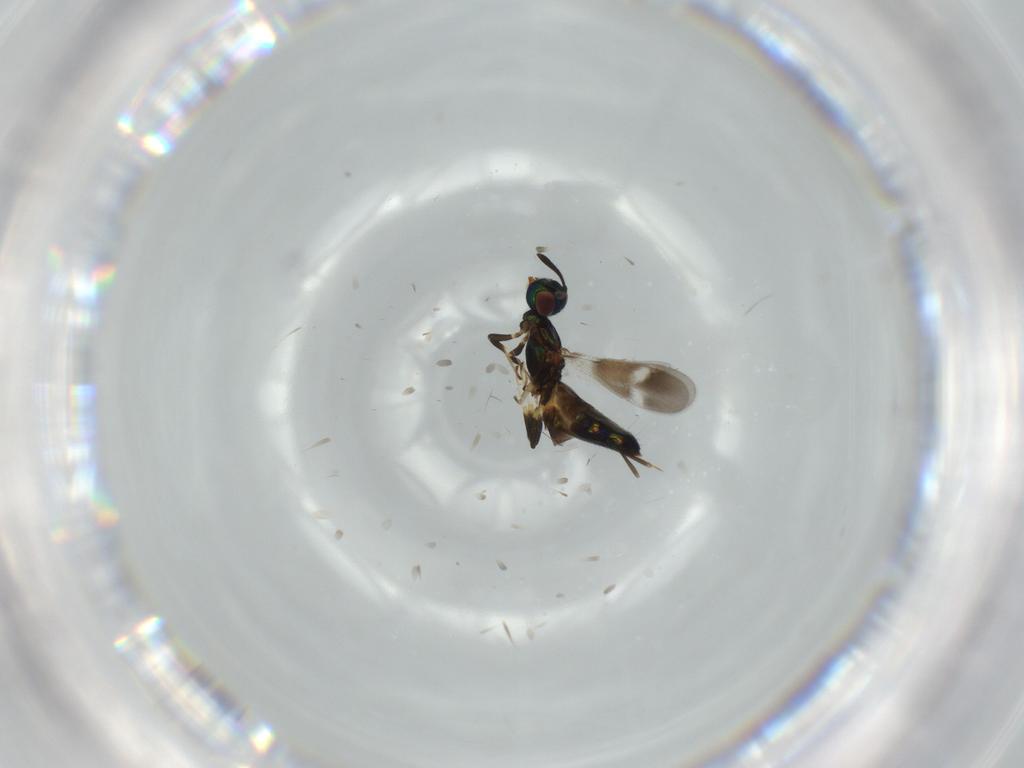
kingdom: Animalia
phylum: Arthropoda
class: Insecta
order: Hymenoptera
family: Eupelmidae
